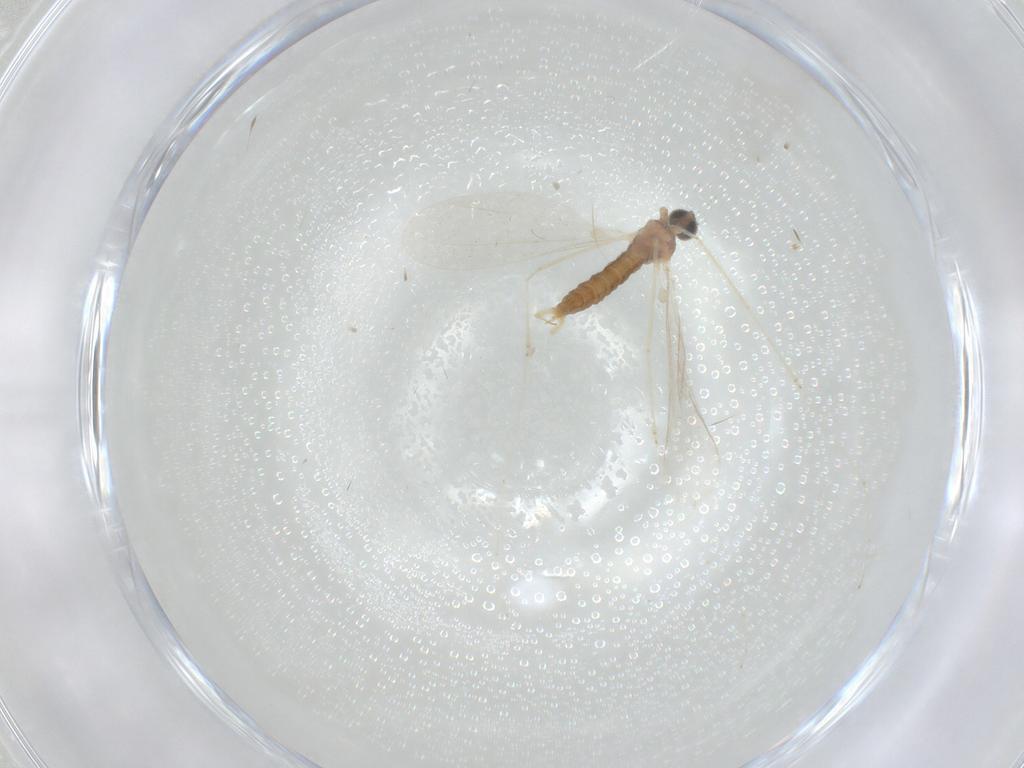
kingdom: Animalia
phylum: Arthropoda
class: Insecta
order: Diptera
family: Cecidomyiidae
